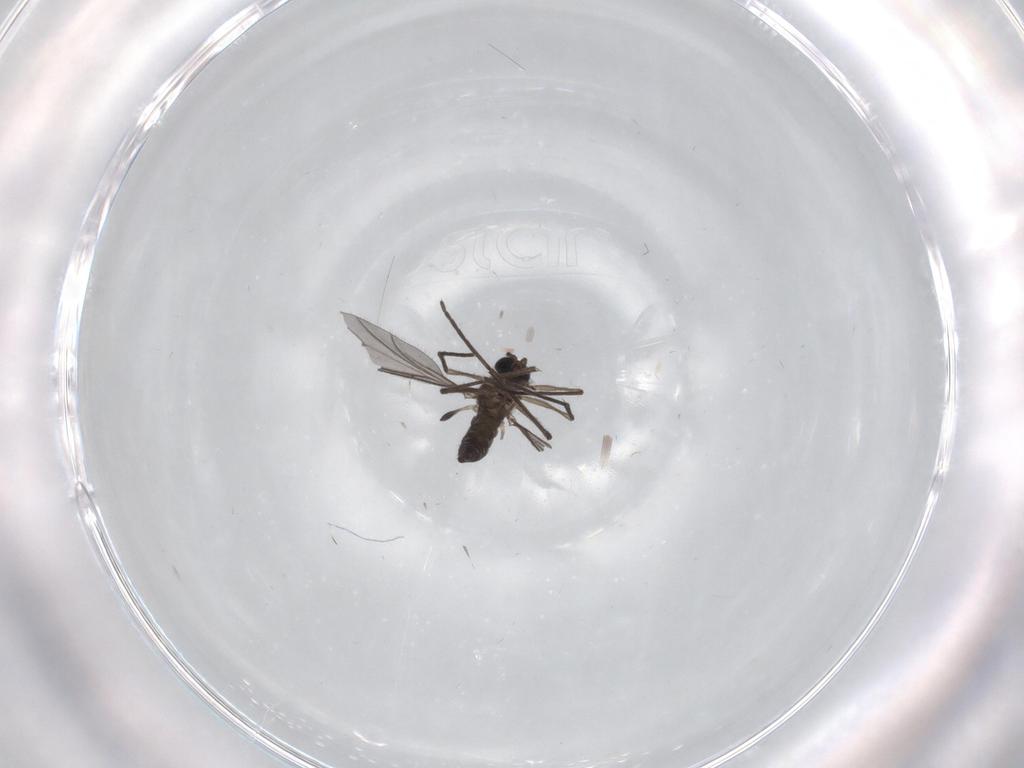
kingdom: Animalia
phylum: Arthropoda
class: Insecta
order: Diptera
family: Sciaridae
